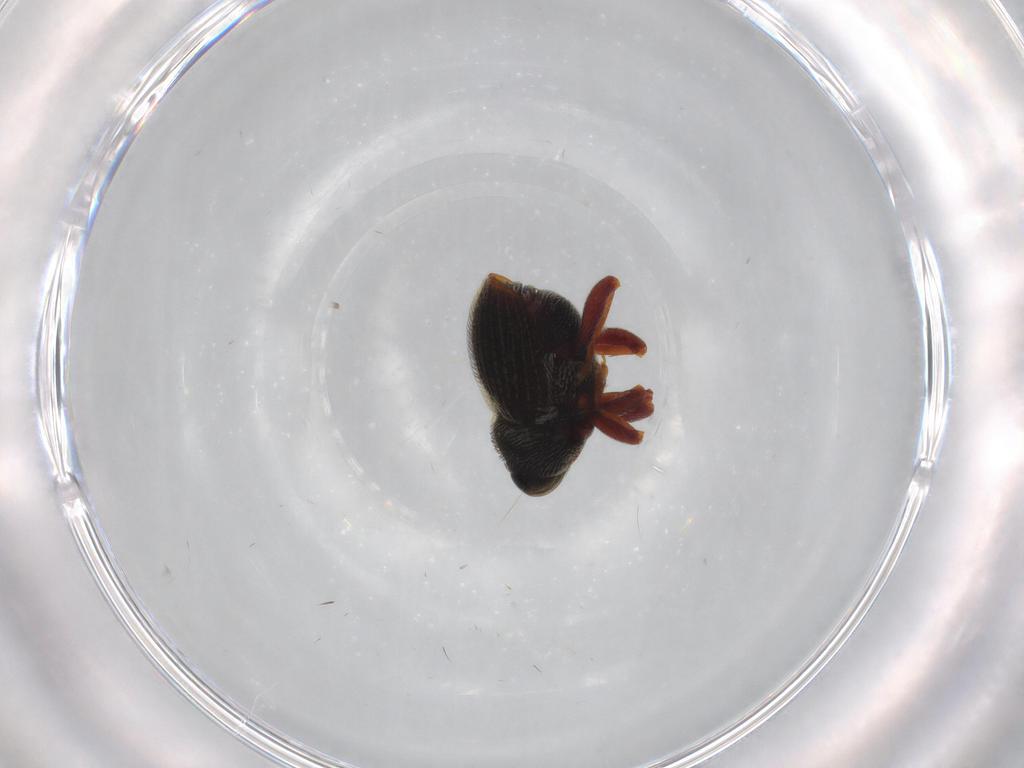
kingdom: Animalia
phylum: Arthropoda
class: Insecta
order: Coleoptera
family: Curculionidae
